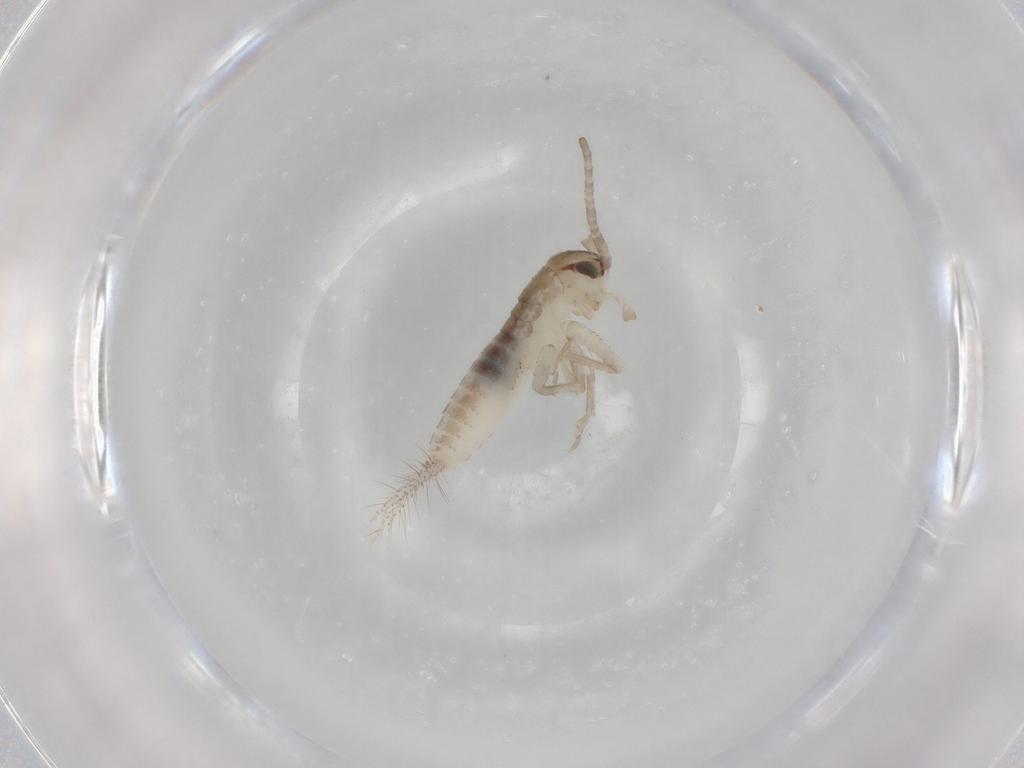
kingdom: Animalia
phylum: Arthropoda
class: Insecta
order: Orthoptera
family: Gryllidae
